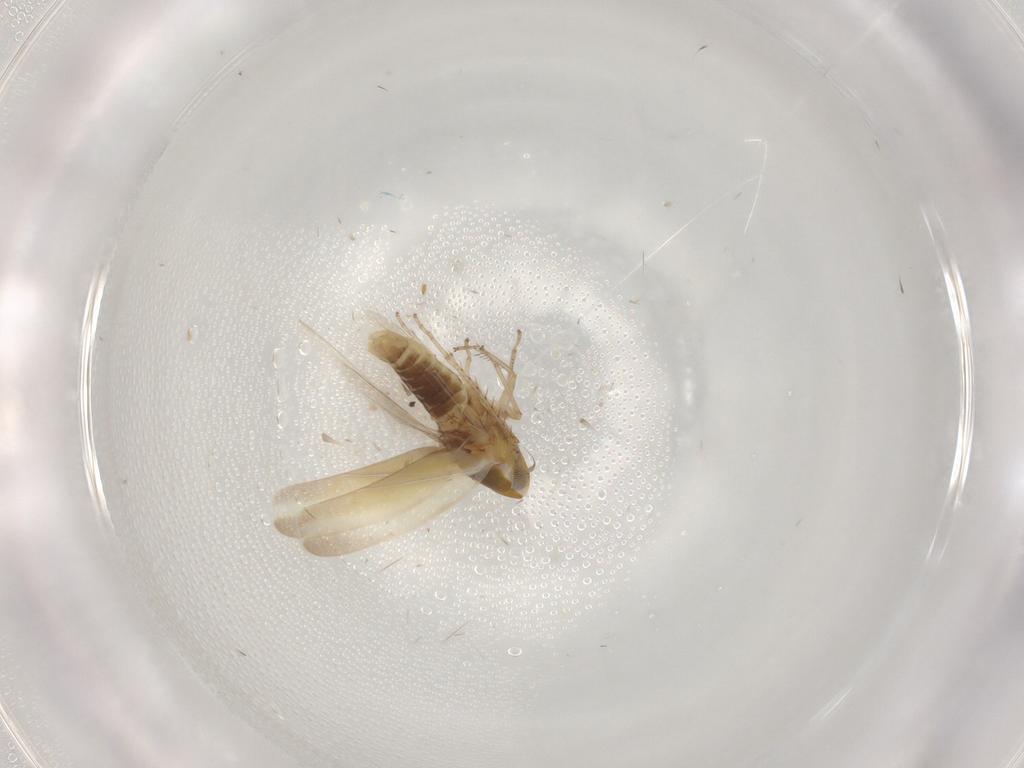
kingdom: Animalia
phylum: Arthropoda
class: Insecta
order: Hemiptera
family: Cicadellidae
